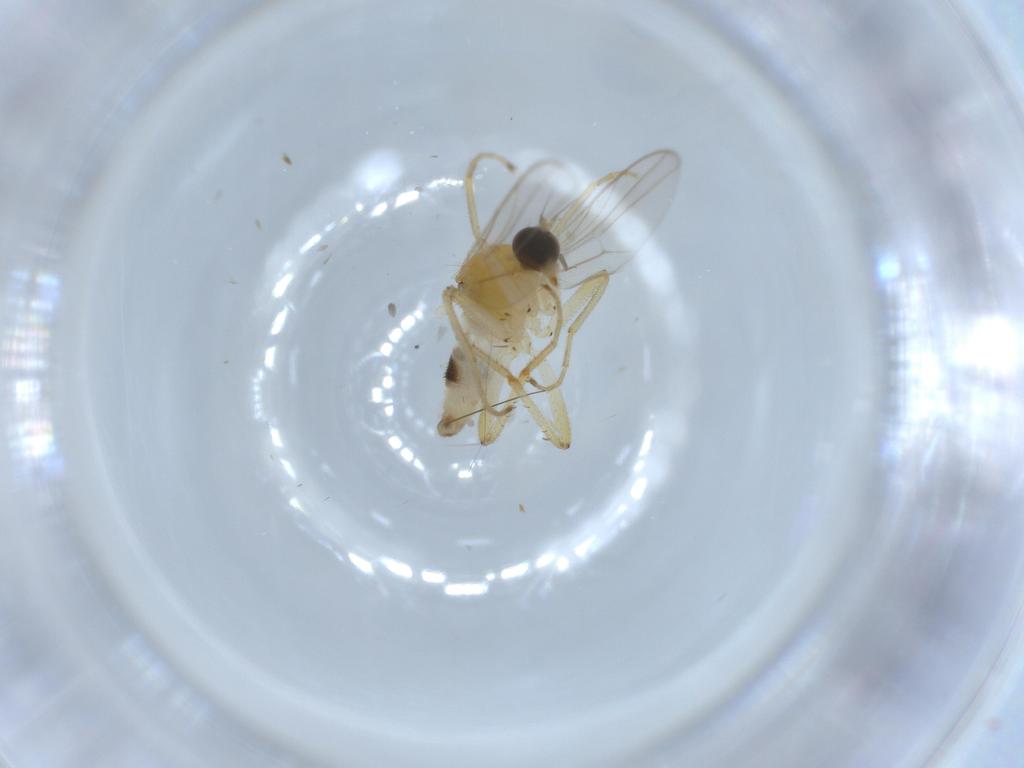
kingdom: Animalia
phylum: Arthropoda
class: Insecta
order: Diptera
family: Hybotidae
